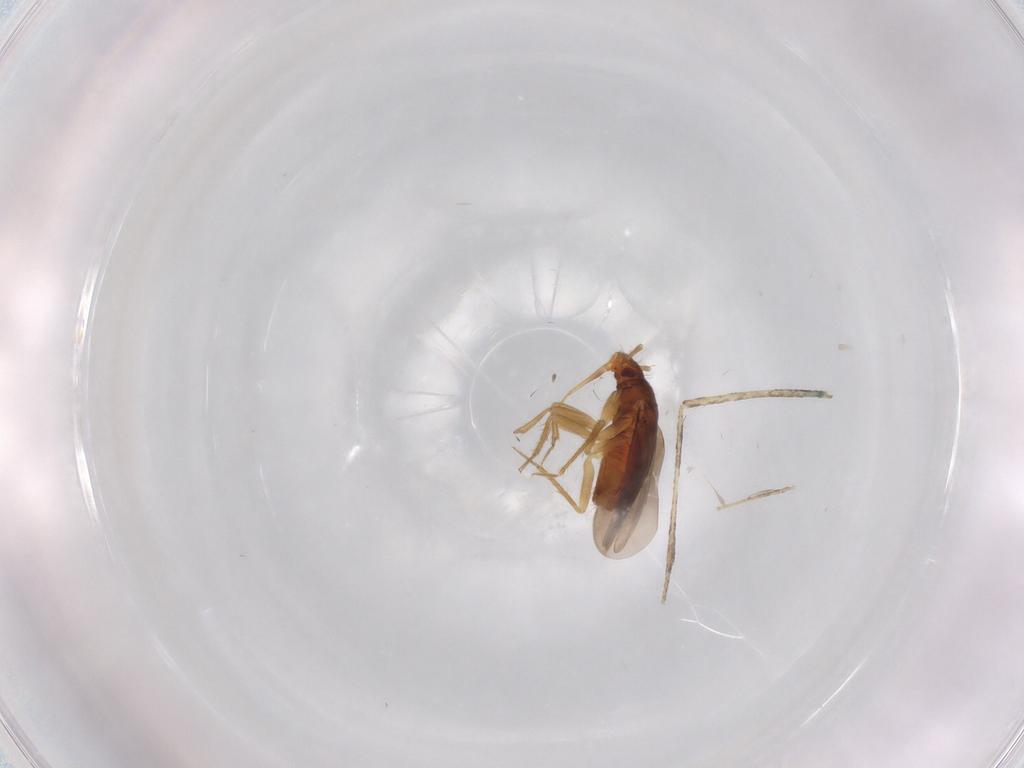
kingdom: Animalia
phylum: Arthropoda
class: Insecta
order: Hemiptera
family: Ceratocombidae
